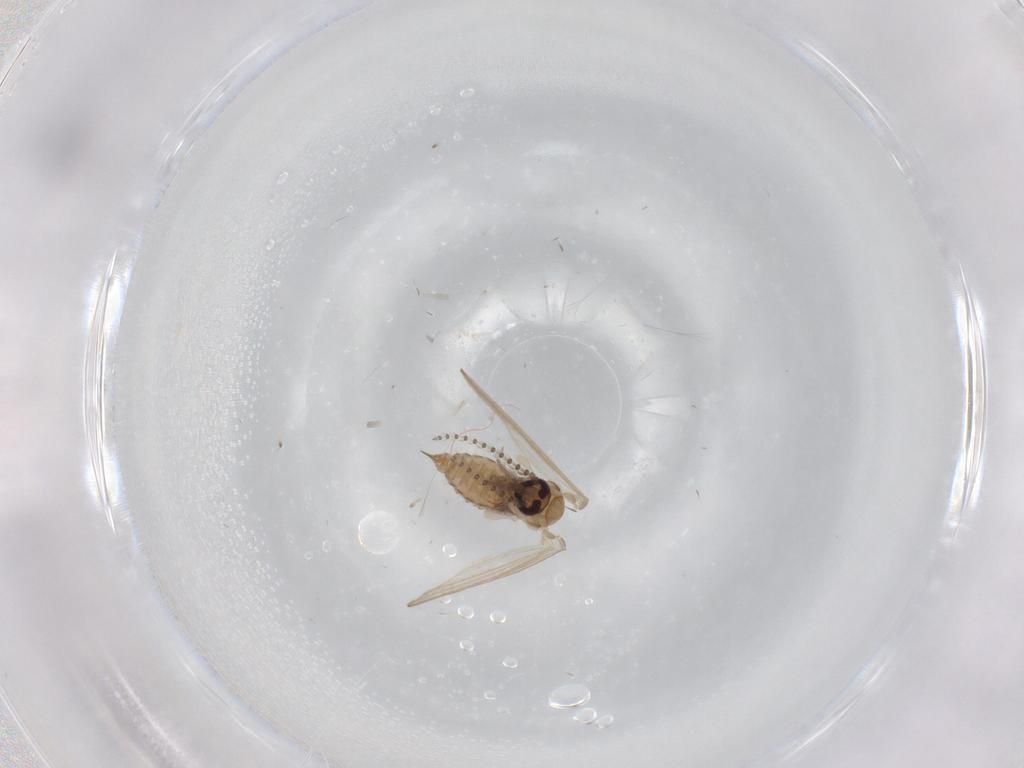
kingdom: Animalia
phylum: Arthropoda
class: Insecta
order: Diptera
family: Psychodidae
